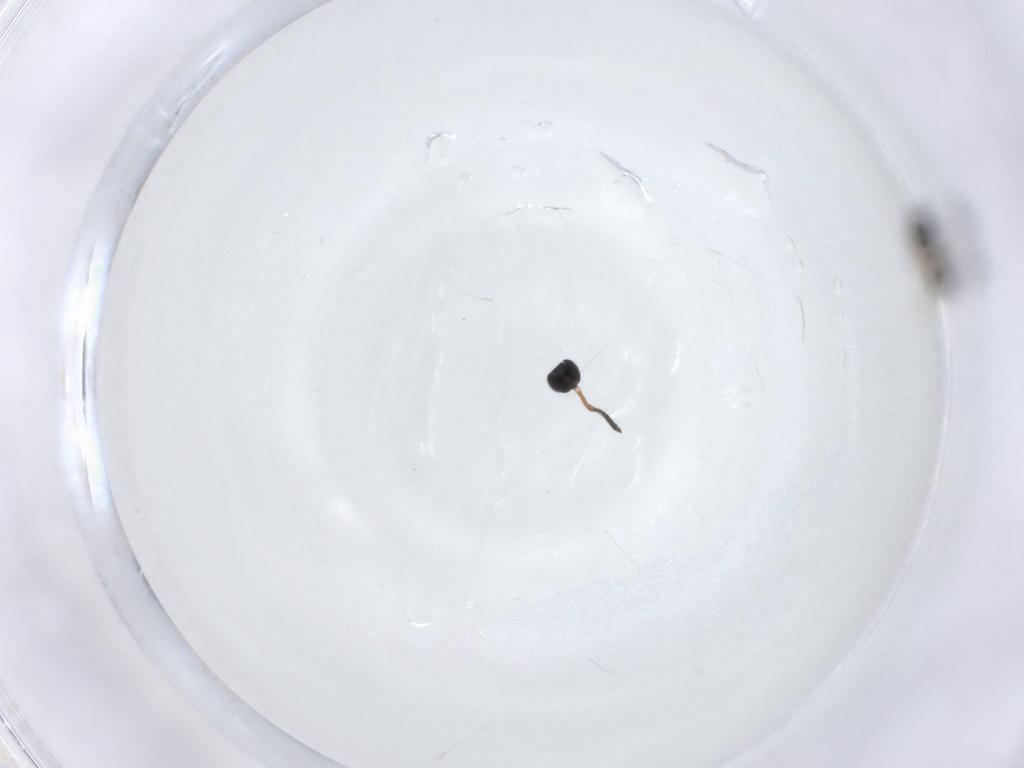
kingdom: Animalia
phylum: Arthropoda
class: Insecta
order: Hymenoptera
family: Scelionidae
